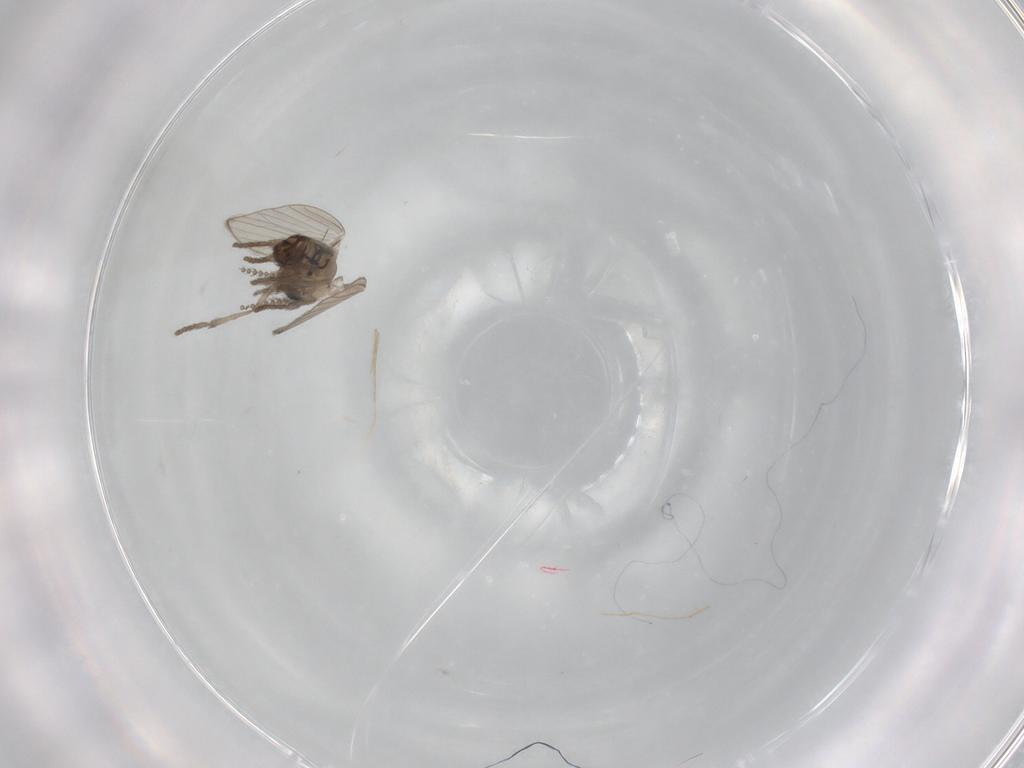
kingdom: Animalia
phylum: Arthropoda
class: Insecta
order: Diptera
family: Psychodidae
